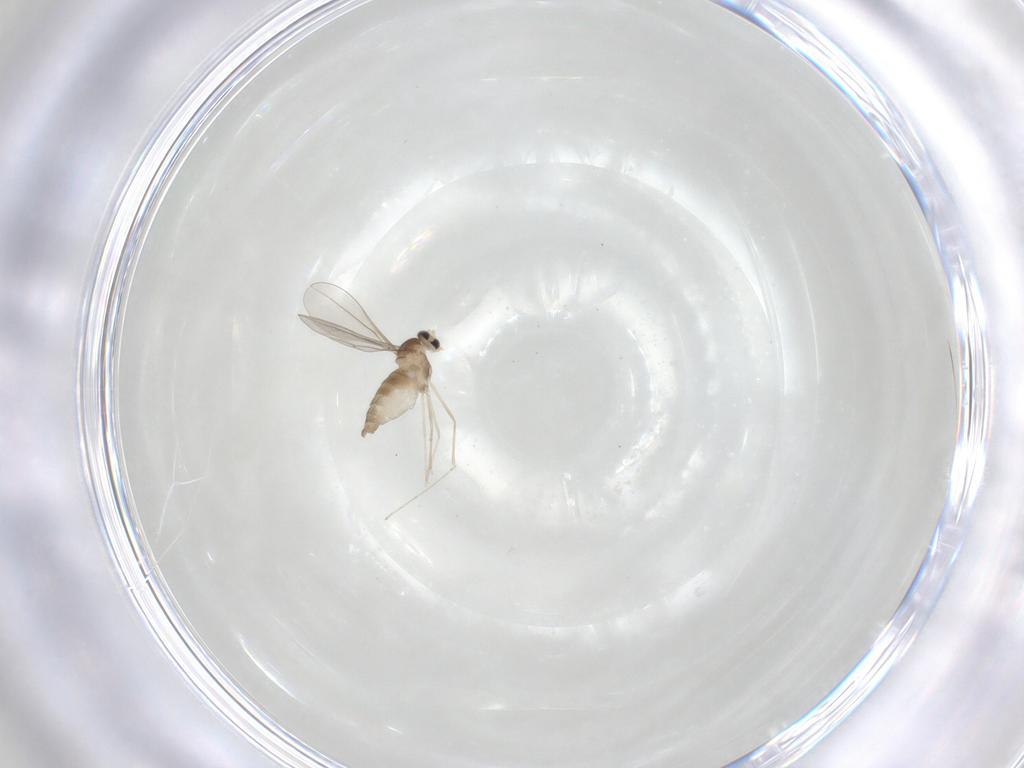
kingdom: Animalia
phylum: Arthropoda
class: Insecta
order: Diptera
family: Cecidomyiidae
